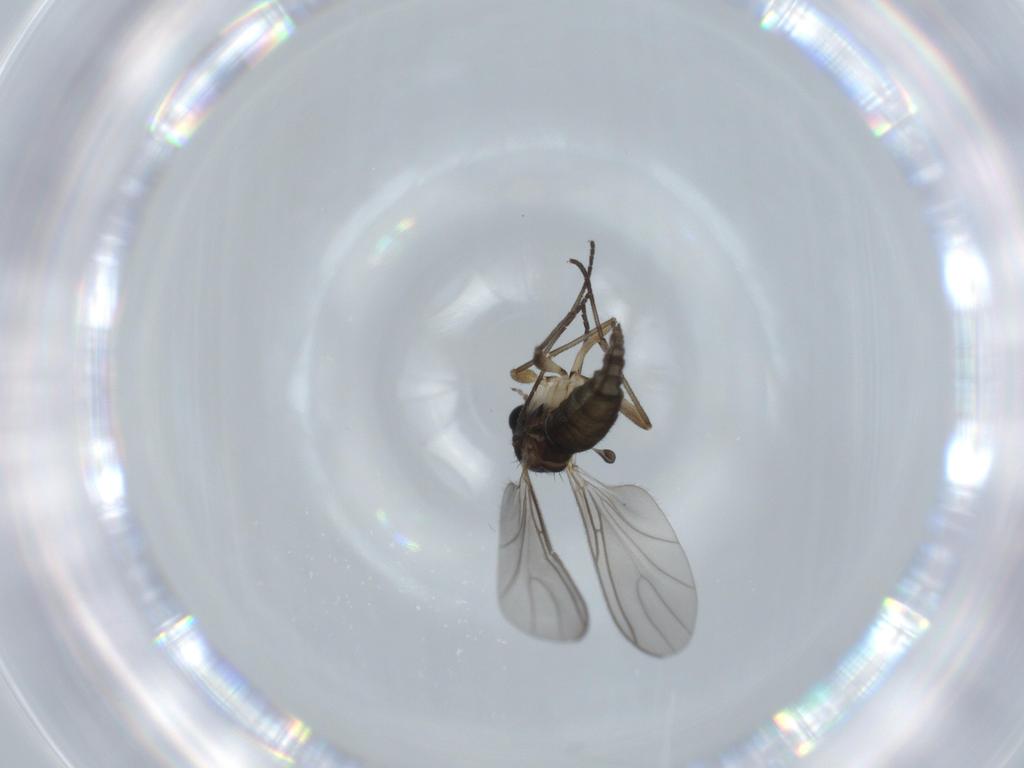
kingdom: Animalia
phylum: Arthropoda
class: Insecta
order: Diptera
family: Sciaridae
